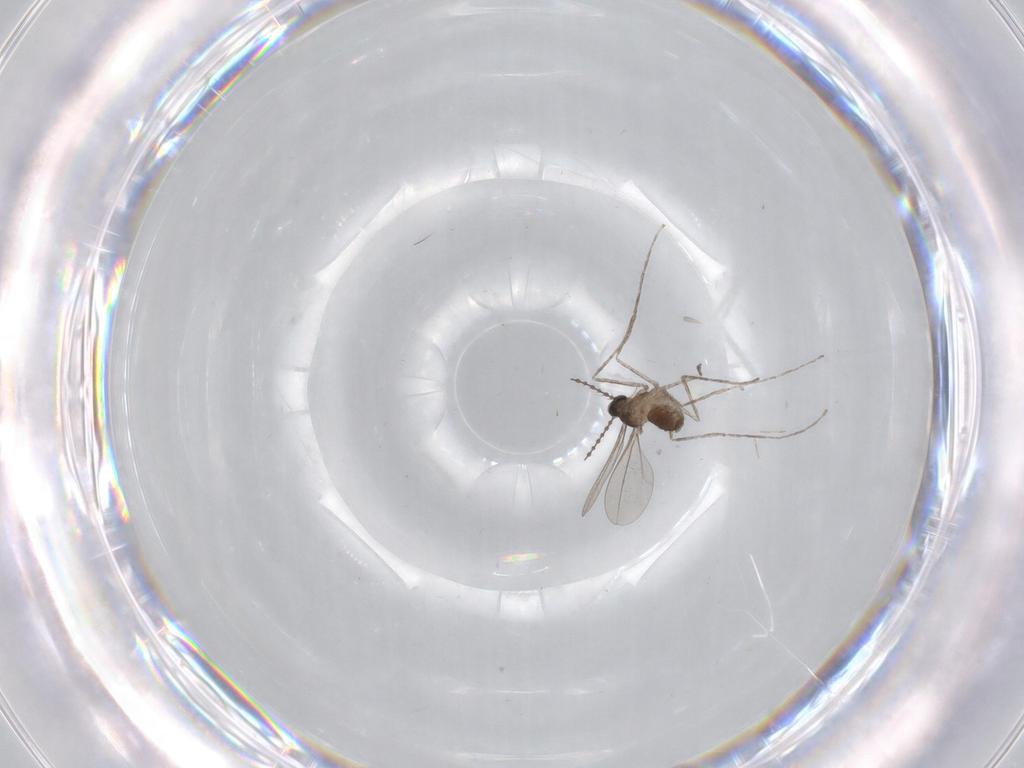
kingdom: Animalia
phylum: Arthropoda
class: Insecta
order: Diptera
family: Cecidomyiidae
